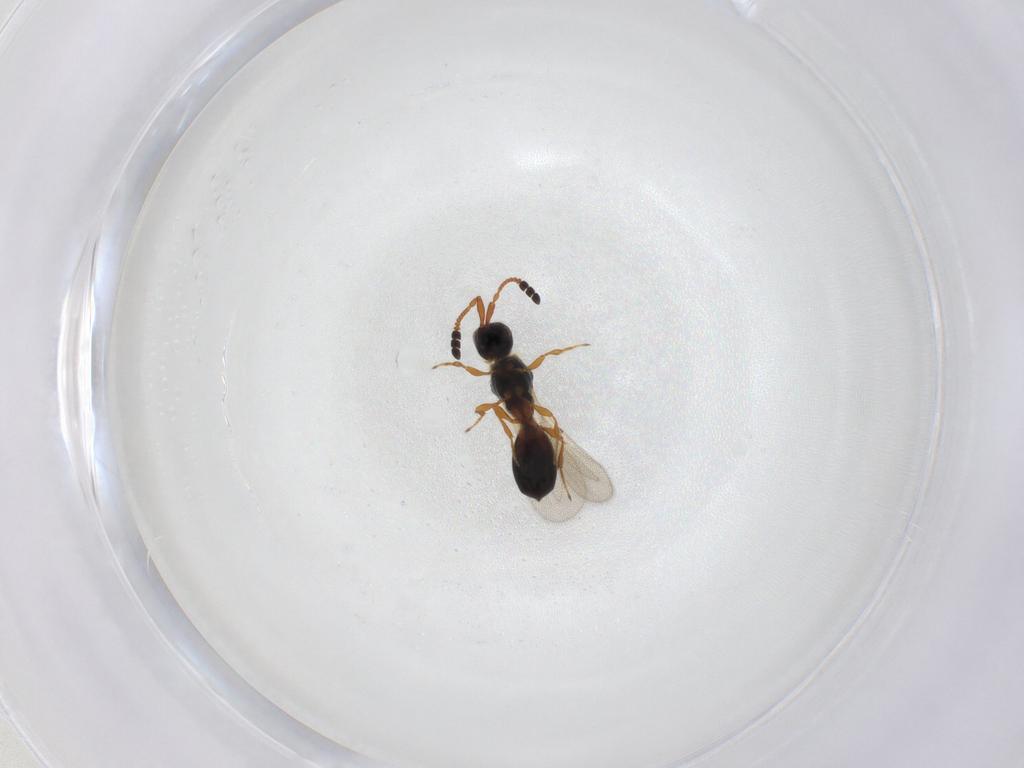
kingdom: Animalia
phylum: Arthropoda
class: Insecta
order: Hymenoptera
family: Diapriidae
